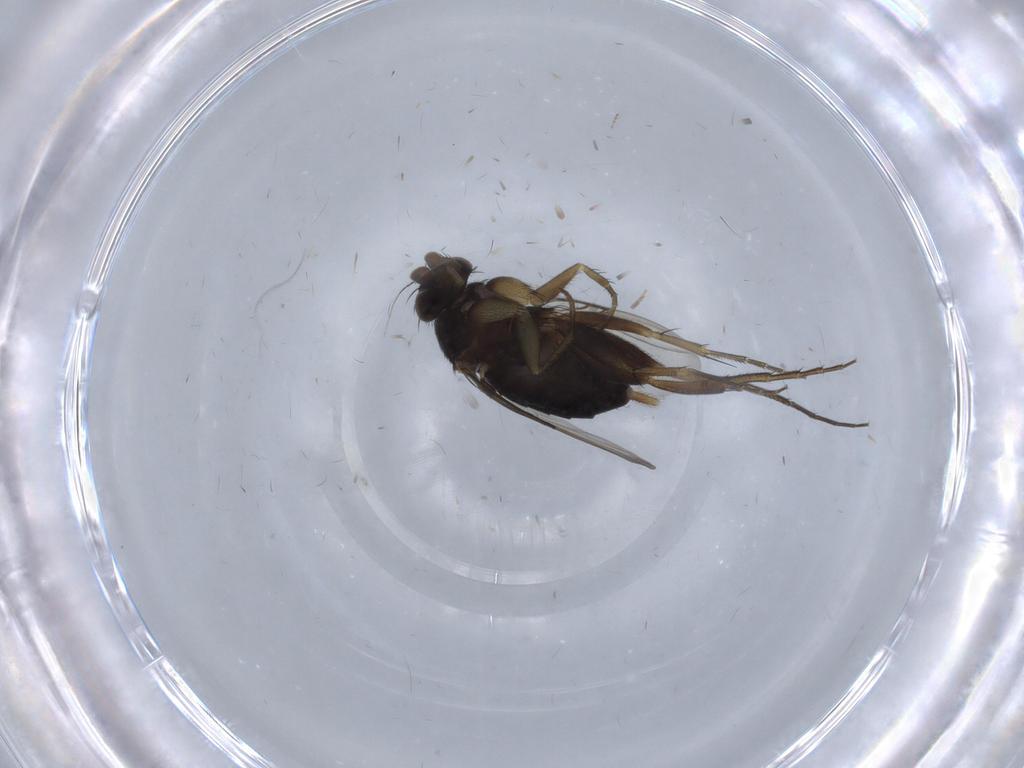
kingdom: Animalia
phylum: Arthropoda
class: Insecta
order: Diptera
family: Phoridae
